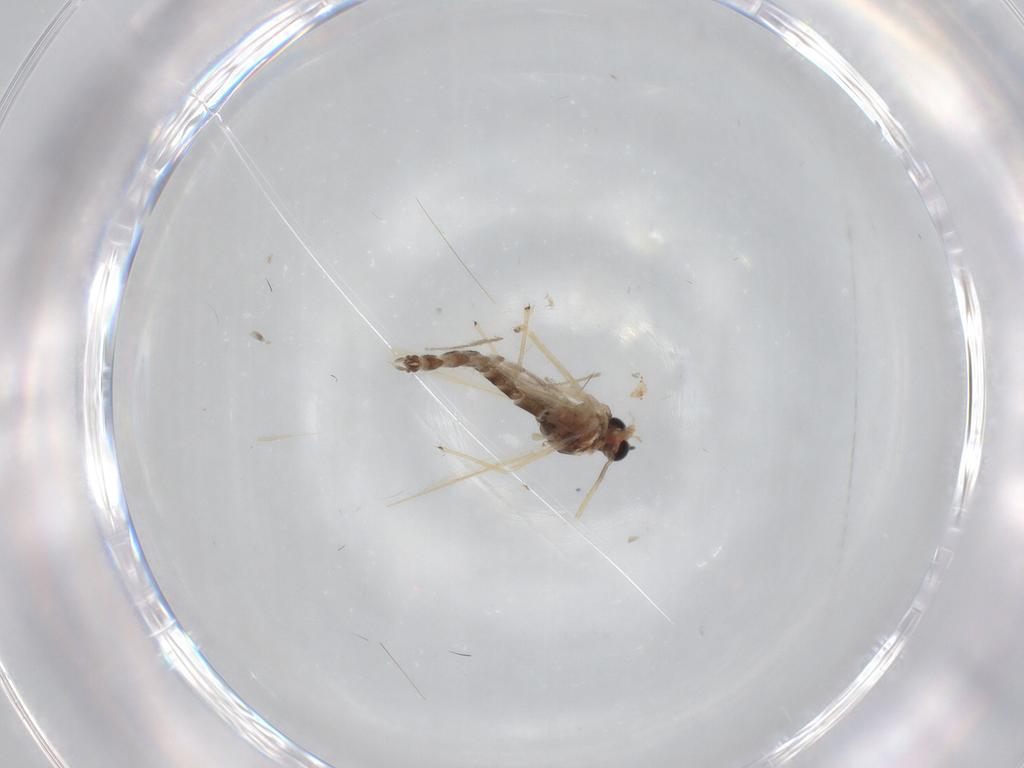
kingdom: Animalia
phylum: Arthropoda
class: Insecta
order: Diptera
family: Chironomidae
